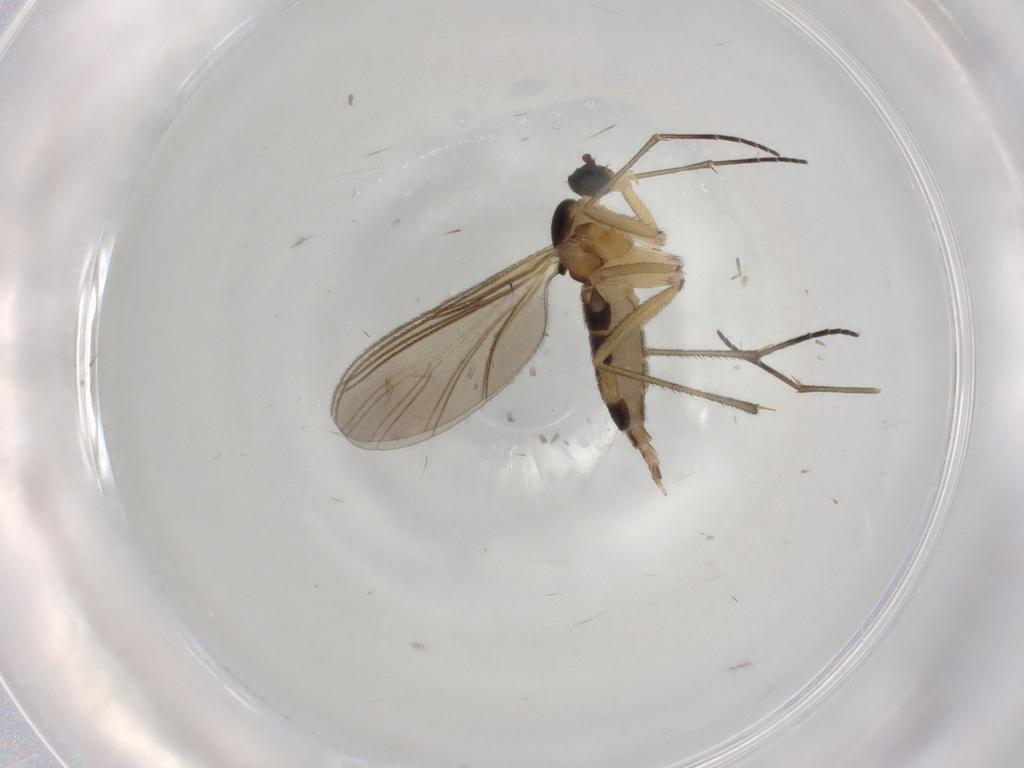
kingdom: Animalia
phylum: Arthropoda
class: Insecta
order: Diptera
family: Sciaridae
